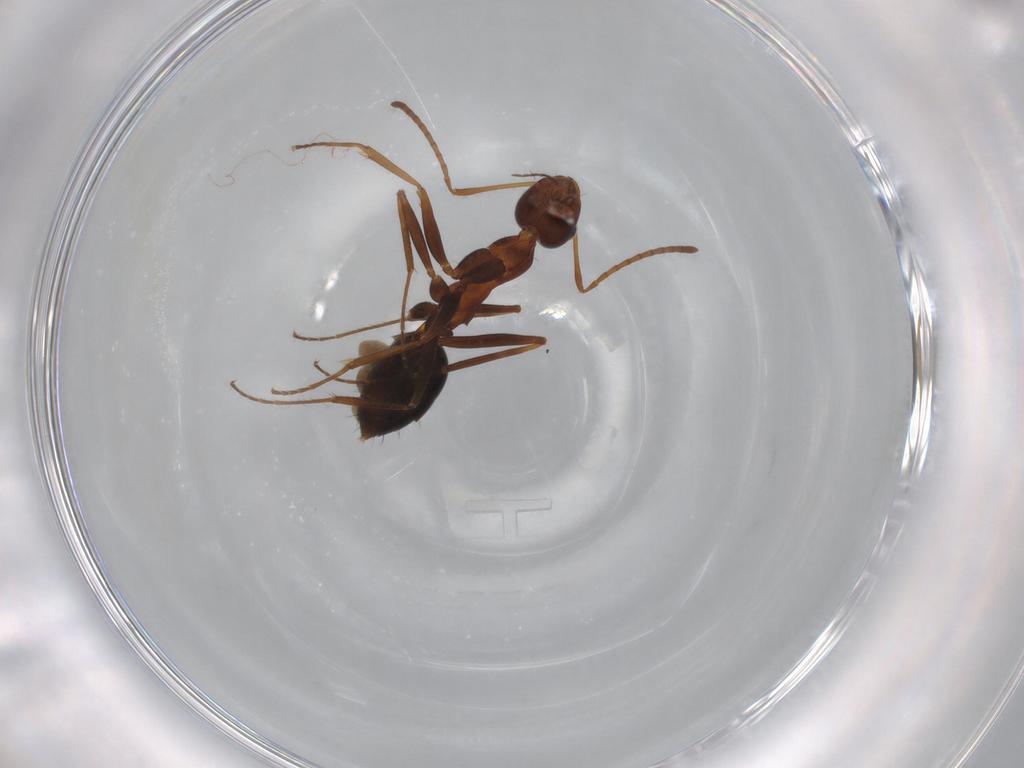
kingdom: Animalia
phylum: Arthropoda
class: Insecta
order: Hymenoptera
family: Formicidae
